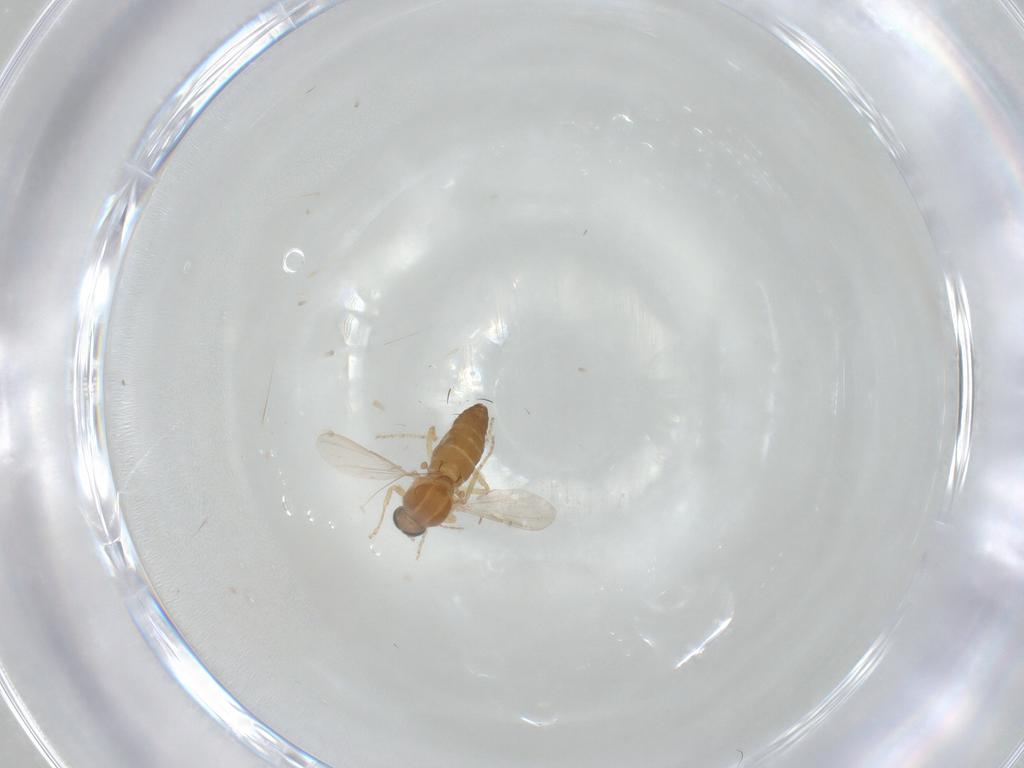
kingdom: Animalia
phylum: Arthropoda
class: Insecta
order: Diptera
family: Ceratopogonidae
